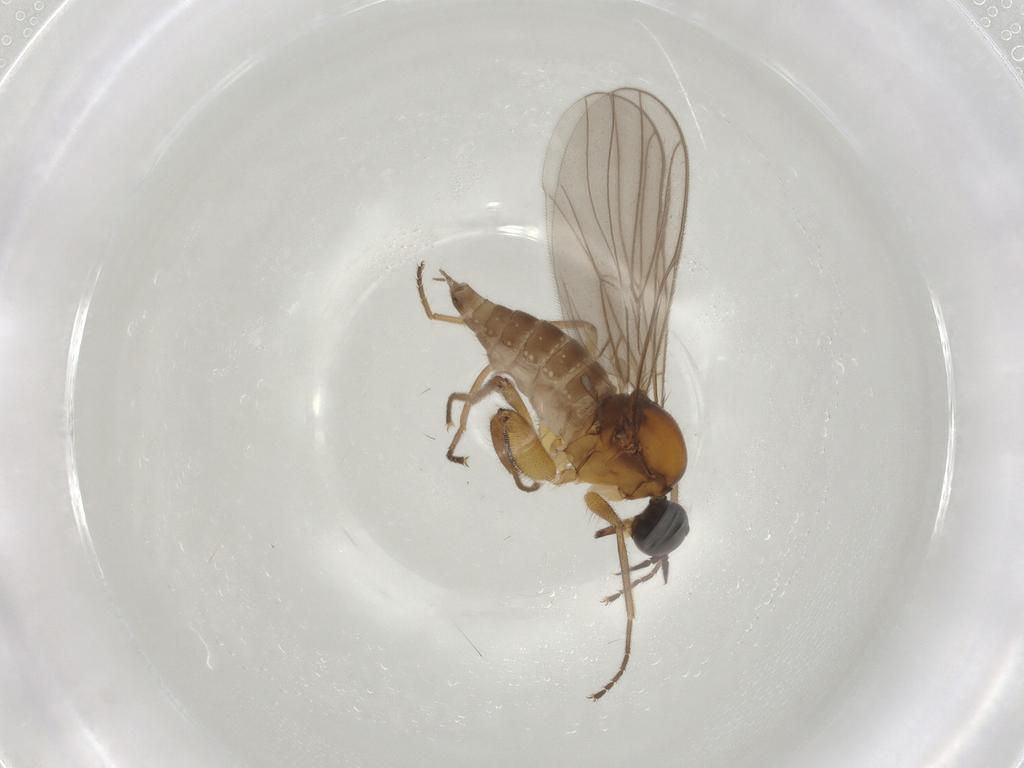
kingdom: Animalia
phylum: Arthropoda
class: Insecta
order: Diptera
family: Hybotidae
